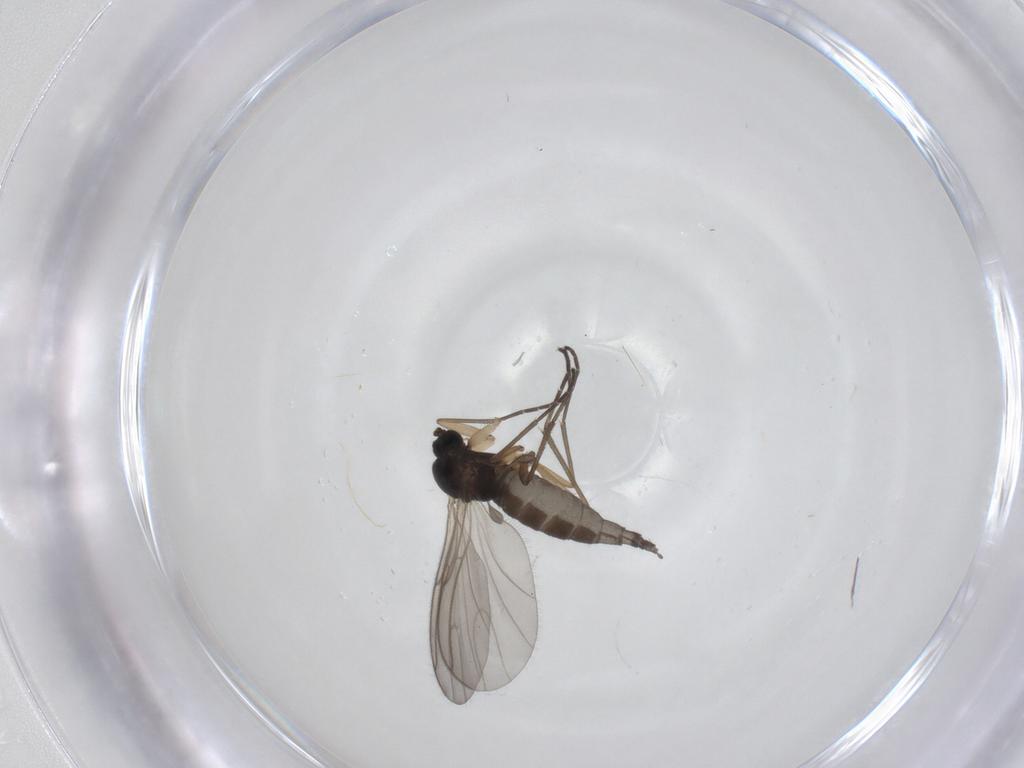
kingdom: Animalia
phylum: Arthropoda
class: Insecta
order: Diptera
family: Sciaridae
